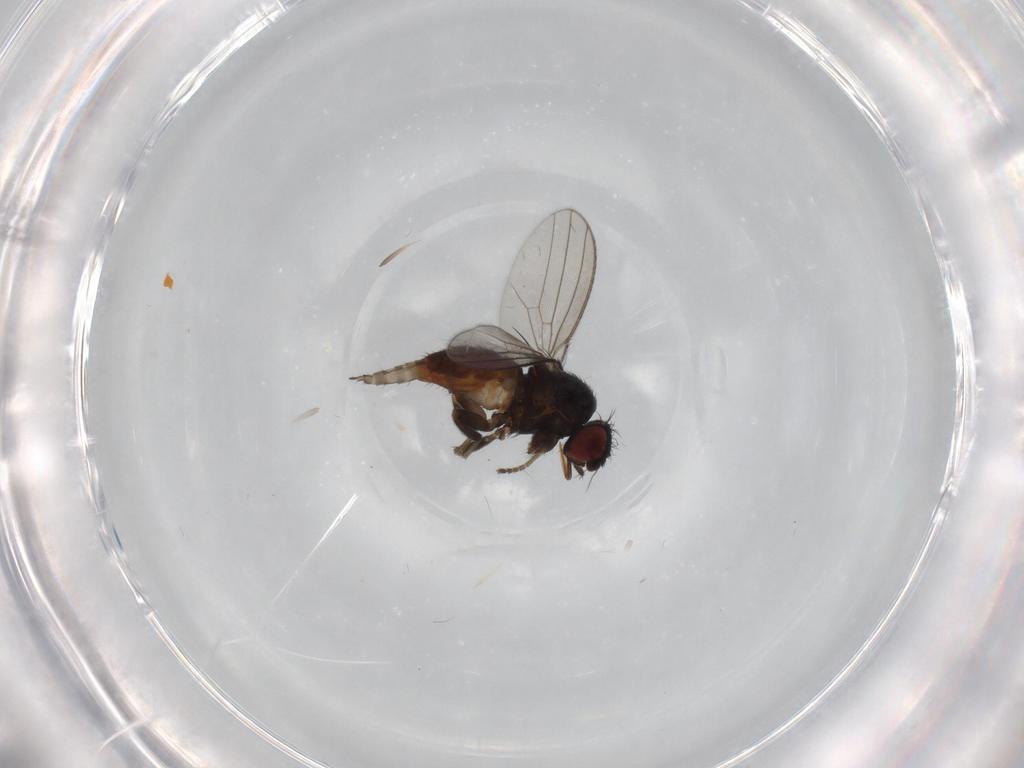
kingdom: Animalia
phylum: Arthropoda
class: Insecta
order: Diptera
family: Milichiidae
